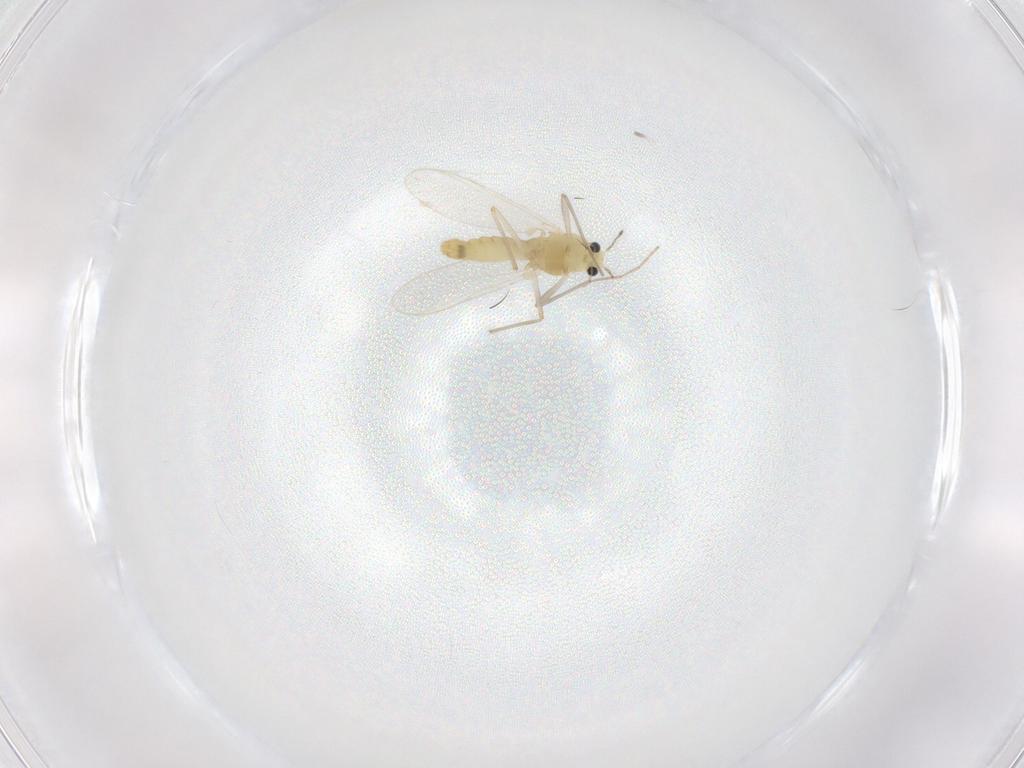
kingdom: Animalia
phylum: Arthropoda
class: Insecta
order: Diptera
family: Chironomidae
